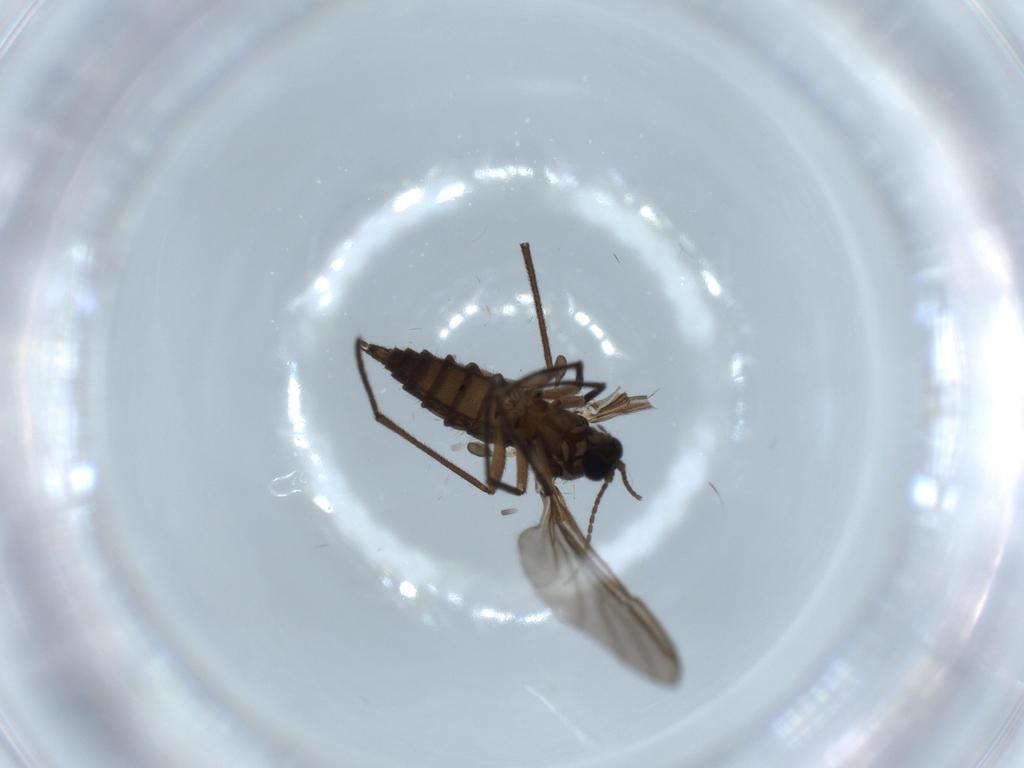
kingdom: Animalia
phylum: Arthropoda
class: Insecta
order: Diptera
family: Sciaridae
